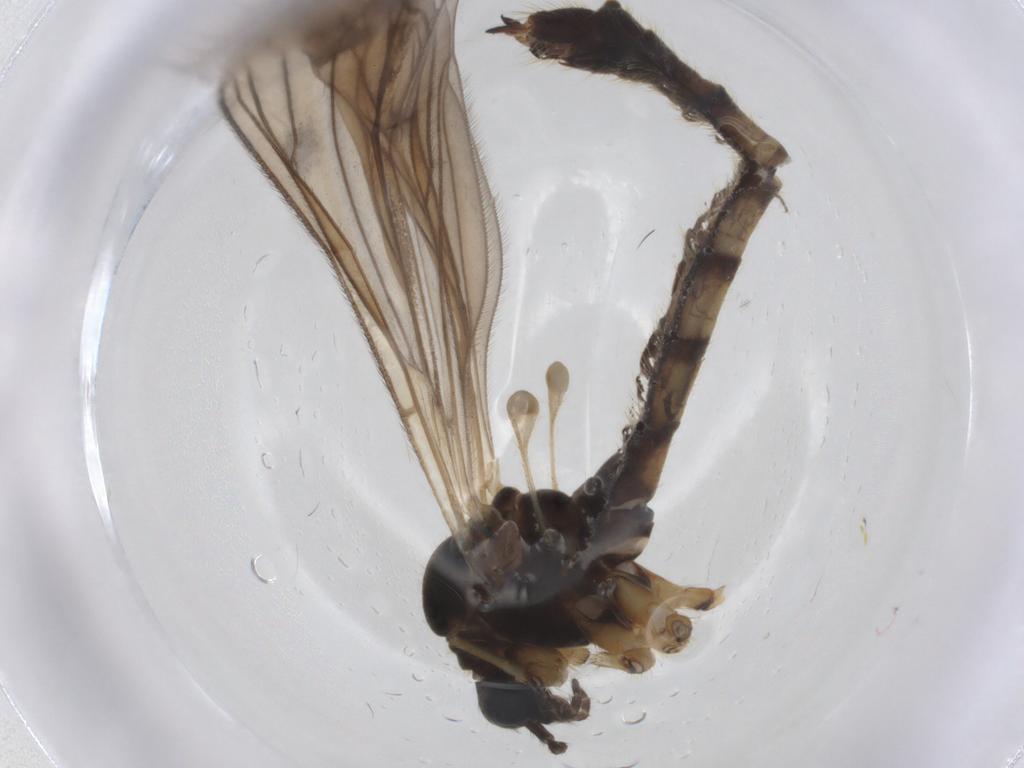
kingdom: Animalia
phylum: Arthropoda
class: Insecta
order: Diptera
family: Limoniidae
